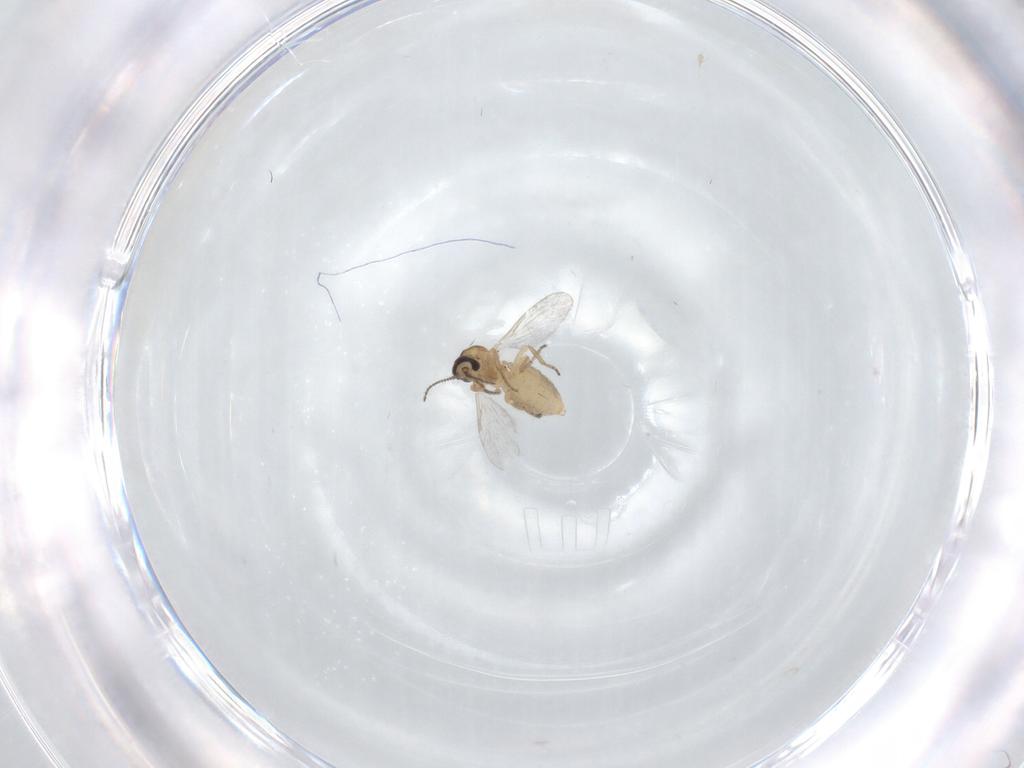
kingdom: Animalia
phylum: Arthropoda
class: Insecta
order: Diptera
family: Ceratopogonidae
